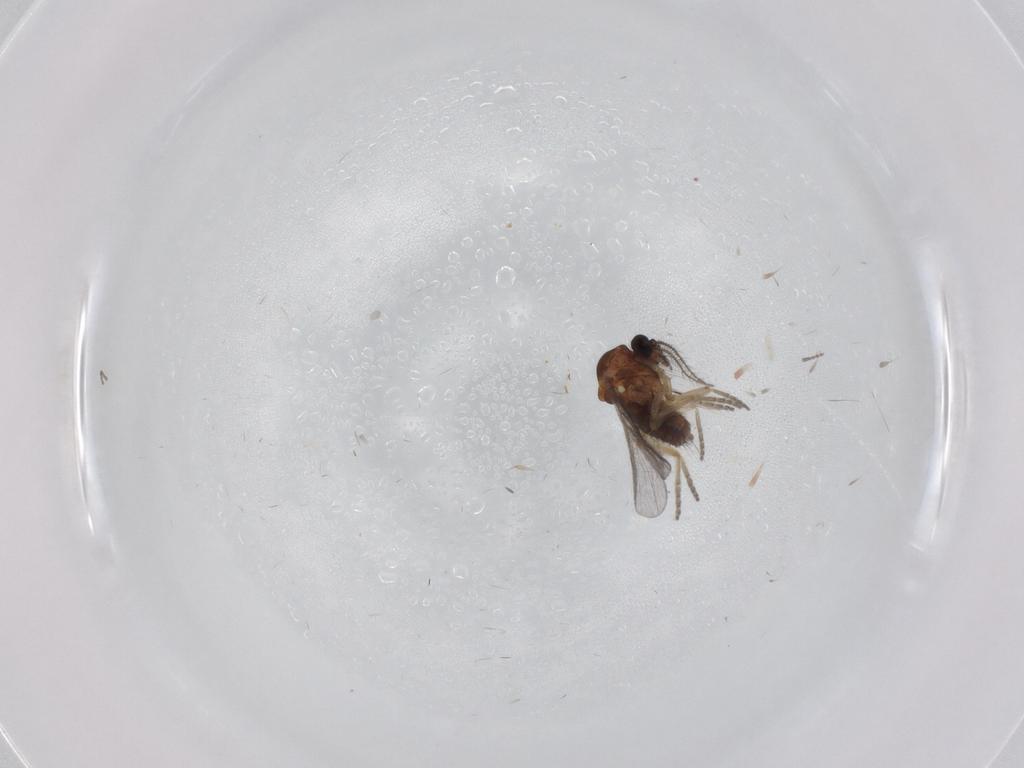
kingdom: Animalia
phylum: Arthropoda
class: Insecta
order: Diptera
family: Ceratopogonidae
